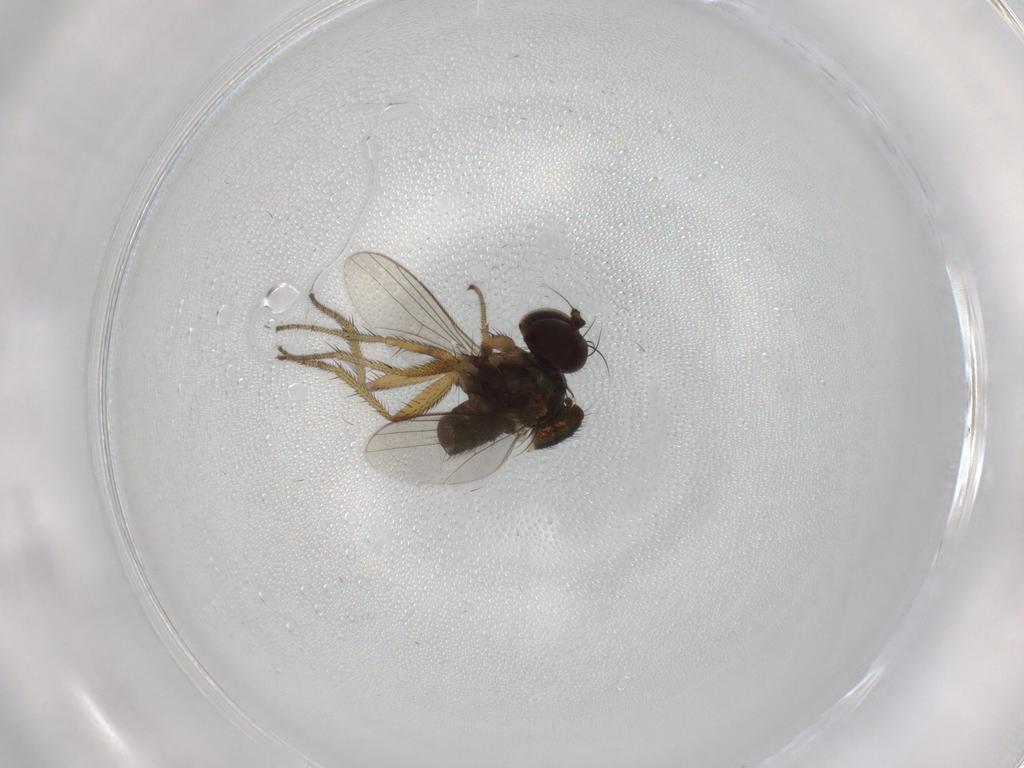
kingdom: Animalia
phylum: Arthropoda
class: Insecta
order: Diptera
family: Dolichopodidae
